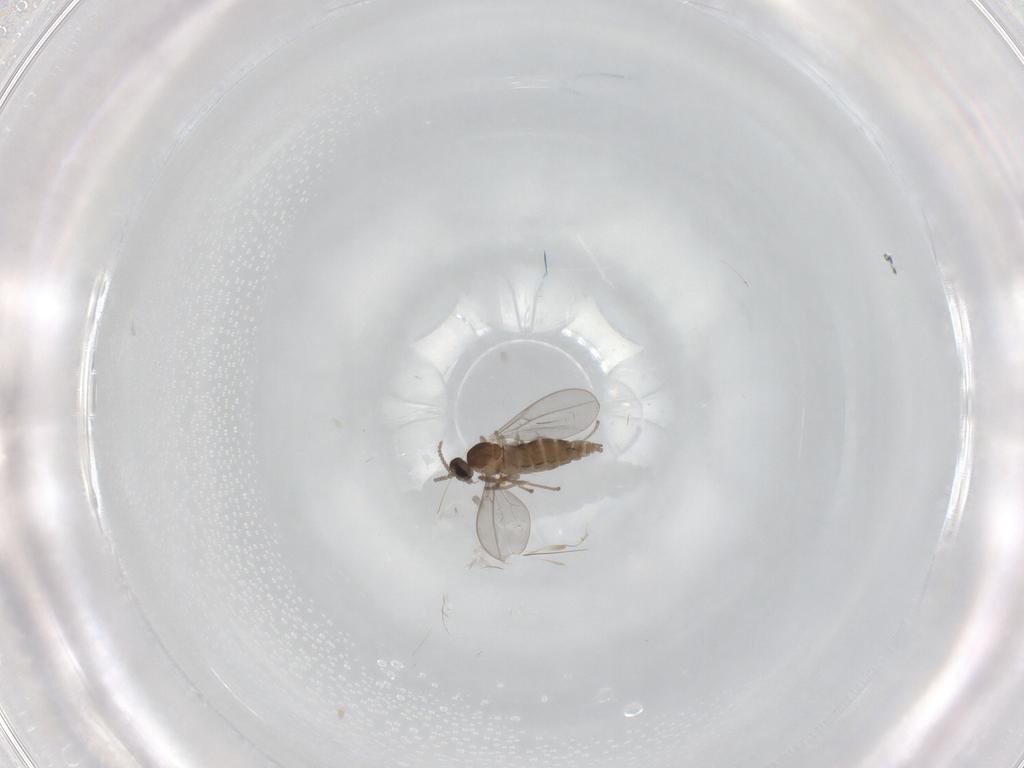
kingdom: Animalia
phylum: Arthropoda
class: Insecta
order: Diptera
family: Cecidomyiidae
